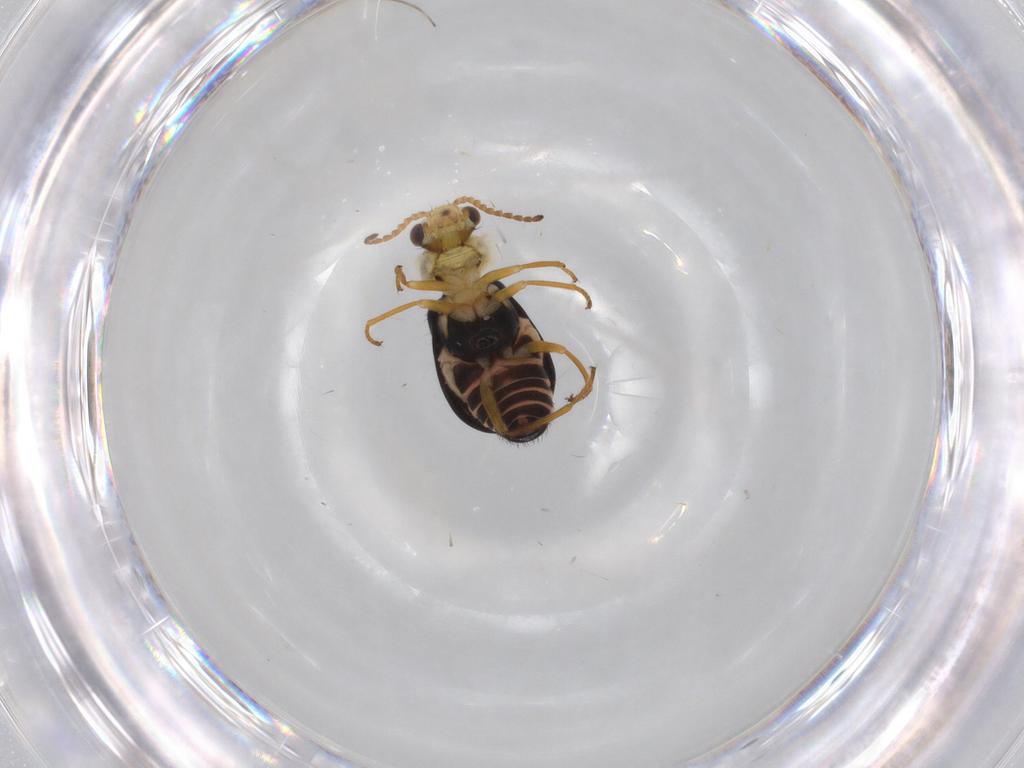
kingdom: Animalia
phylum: Arthropoda
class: Insecta
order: Coleoptera
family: Melyridae
